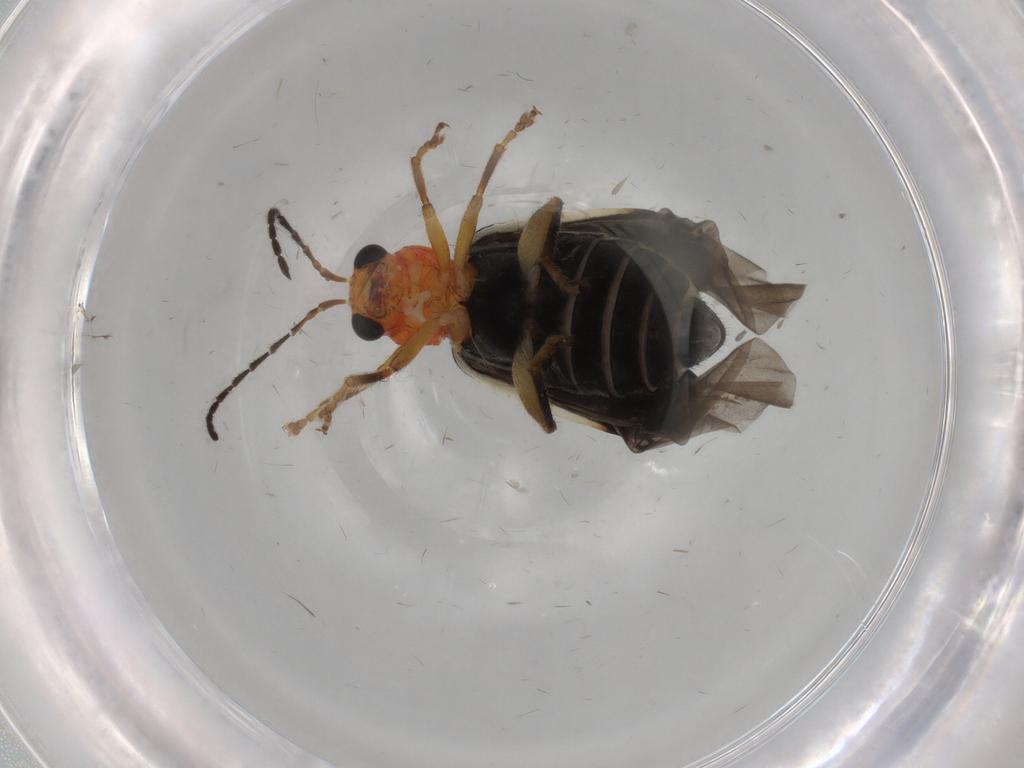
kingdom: Animalia
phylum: Arthropoda
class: Insecta
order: Coleoptera
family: Chrysomelidae
